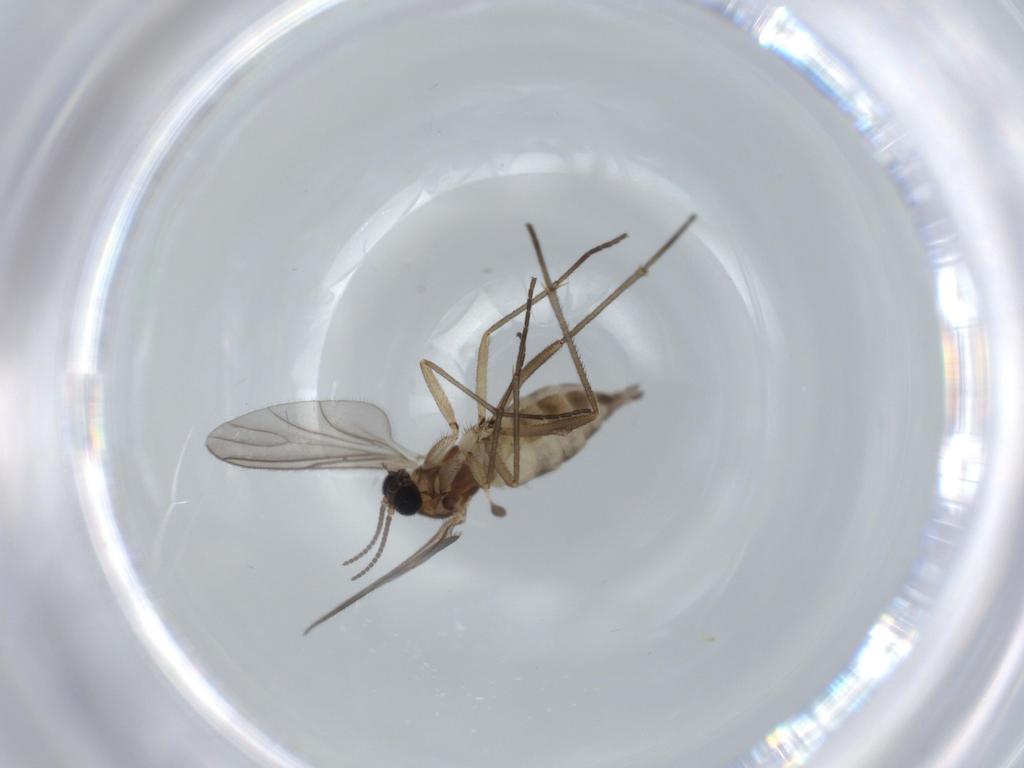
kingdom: Animalia
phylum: Arthropoda
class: Insecta
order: Diptera
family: Sciaridae
